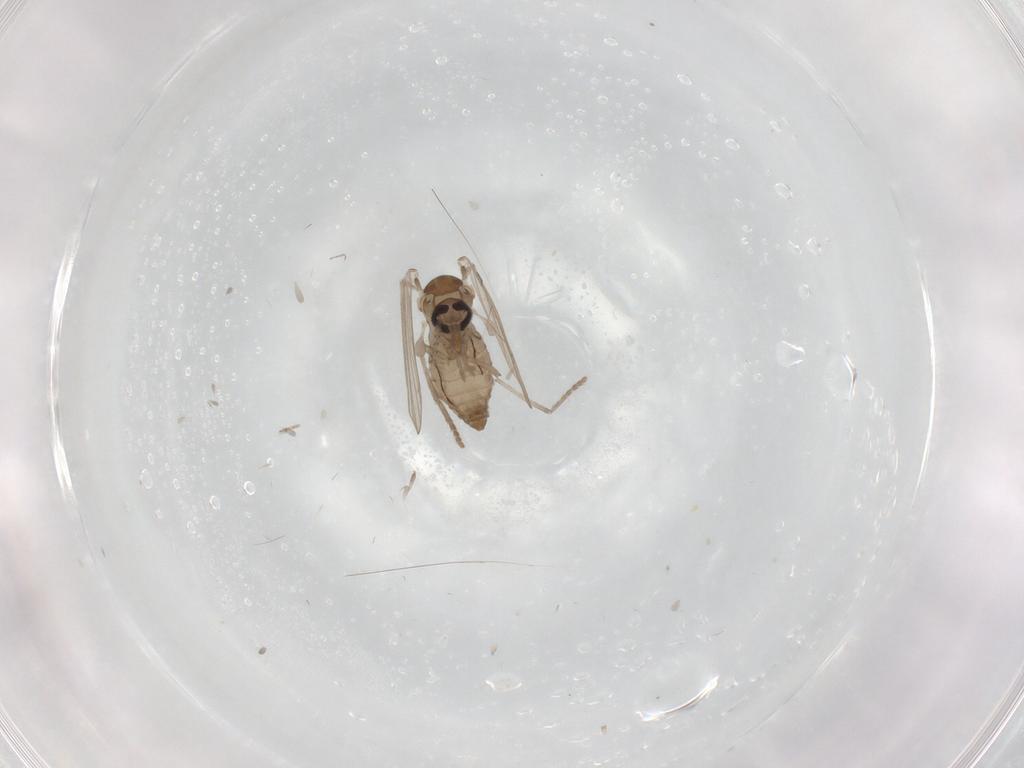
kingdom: Animalia
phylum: Arthropoda
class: Insecta
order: Diptera
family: Psychodidae
